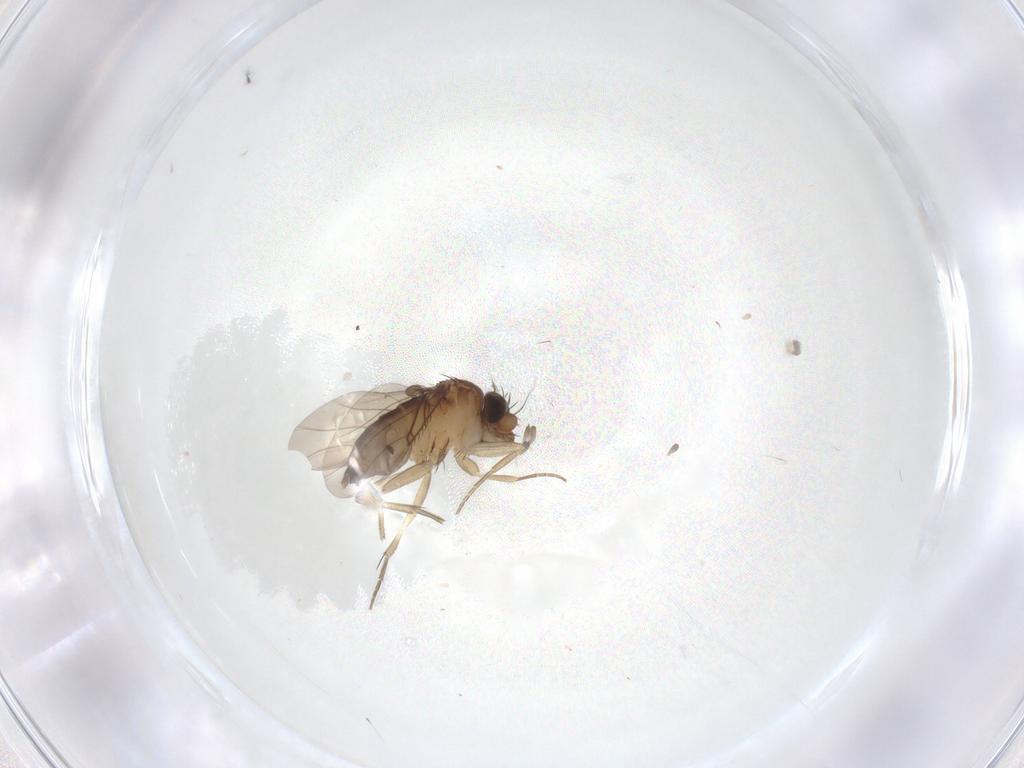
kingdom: Animalia
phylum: Arthropoda
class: Insecta
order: Diptera
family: Phoridae
